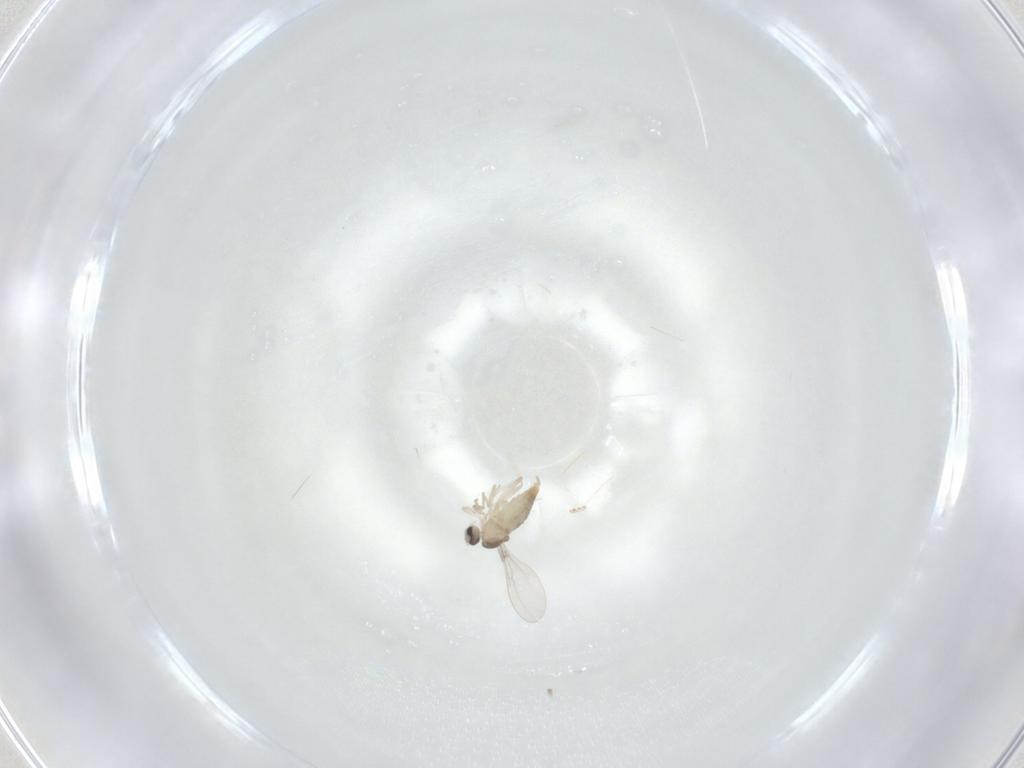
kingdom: Animalia
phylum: Arthropoda
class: Insecta
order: Diptera
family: Cecidomyiidae
